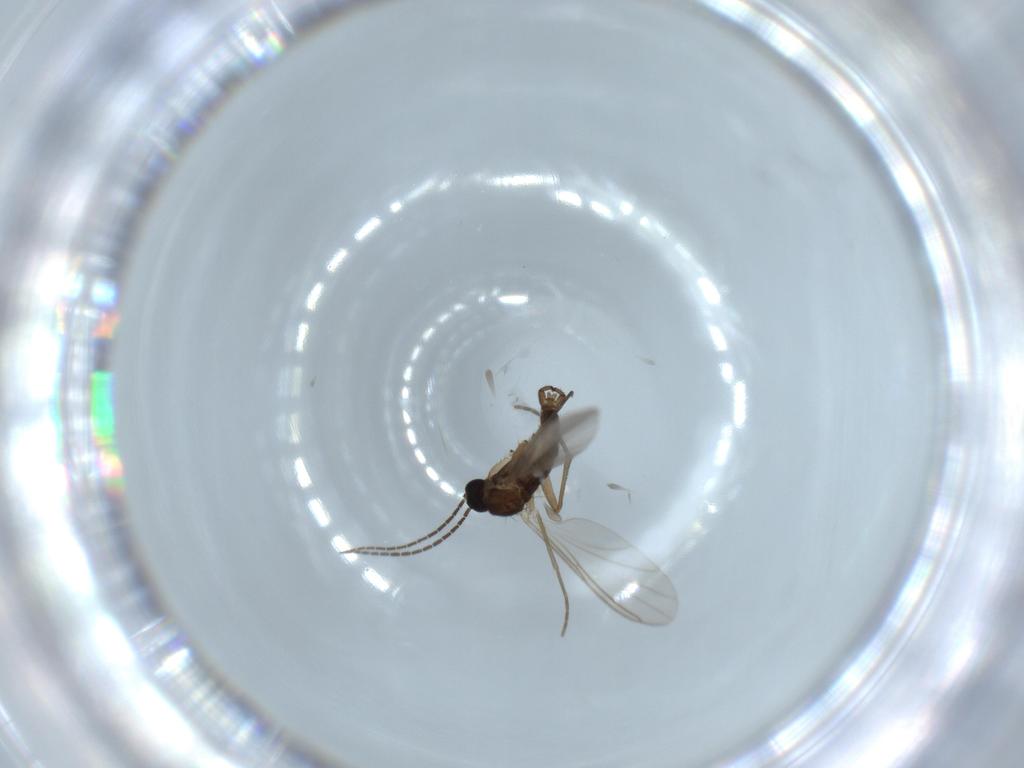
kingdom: Animalia
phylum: Arthropoda
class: Insecta
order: Diptera
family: Sciaridae
